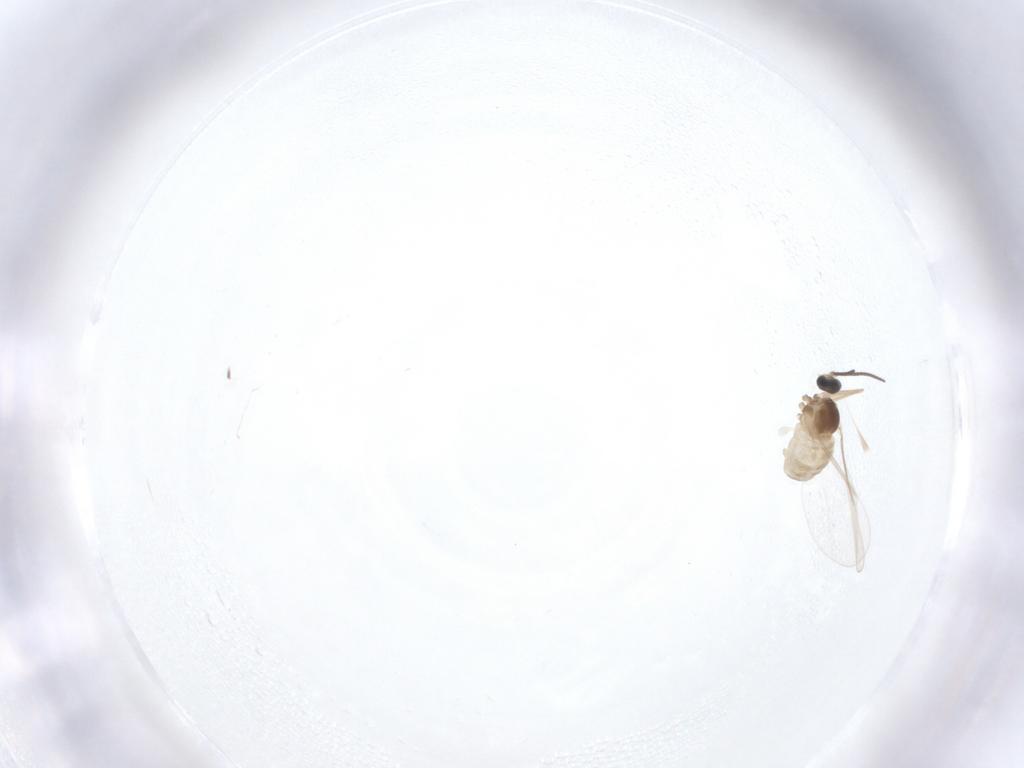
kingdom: Animalia
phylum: Arthropoda
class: Insecta
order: Diptera
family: Cecidomyiidae
